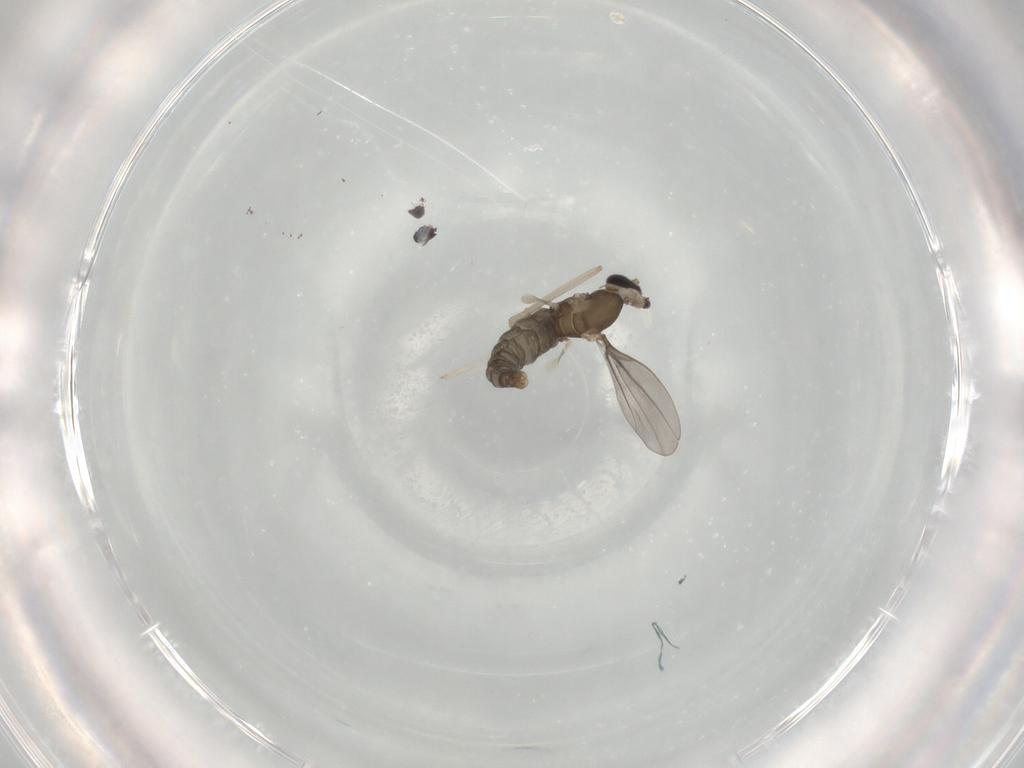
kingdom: Animalia
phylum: Arthropoda
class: Insecta
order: Diptera
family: Cecidomyiidae
